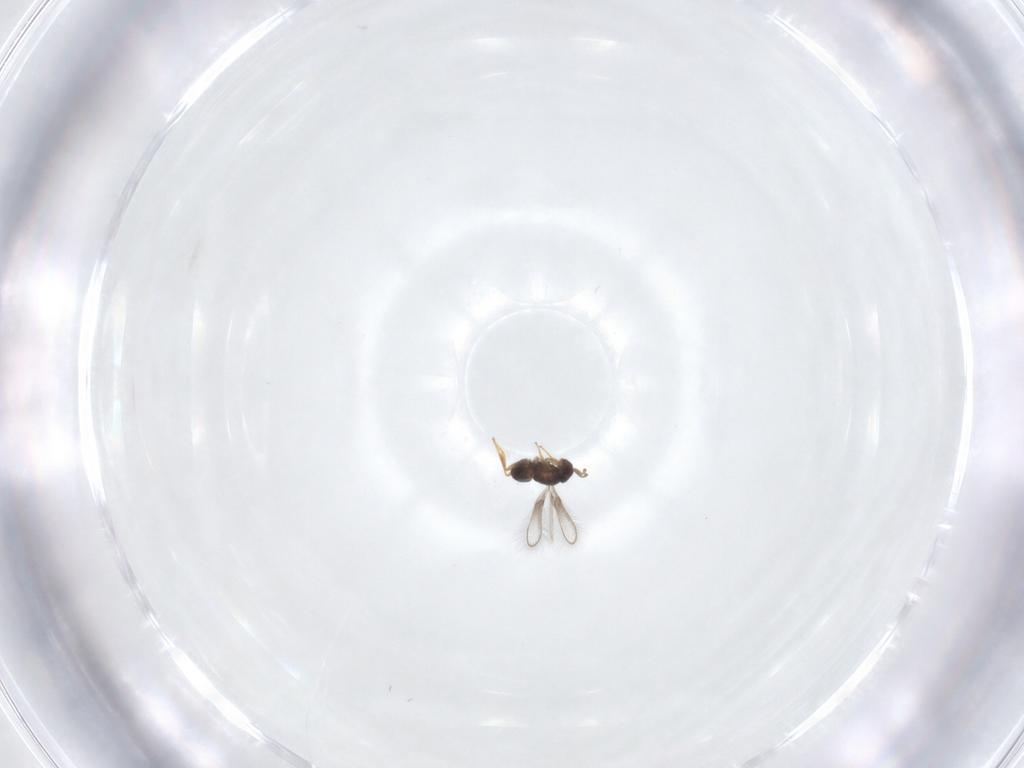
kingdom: Animalia
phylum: Arthropoda
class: Insecta
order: Hymenoptera
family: Mymaridae
